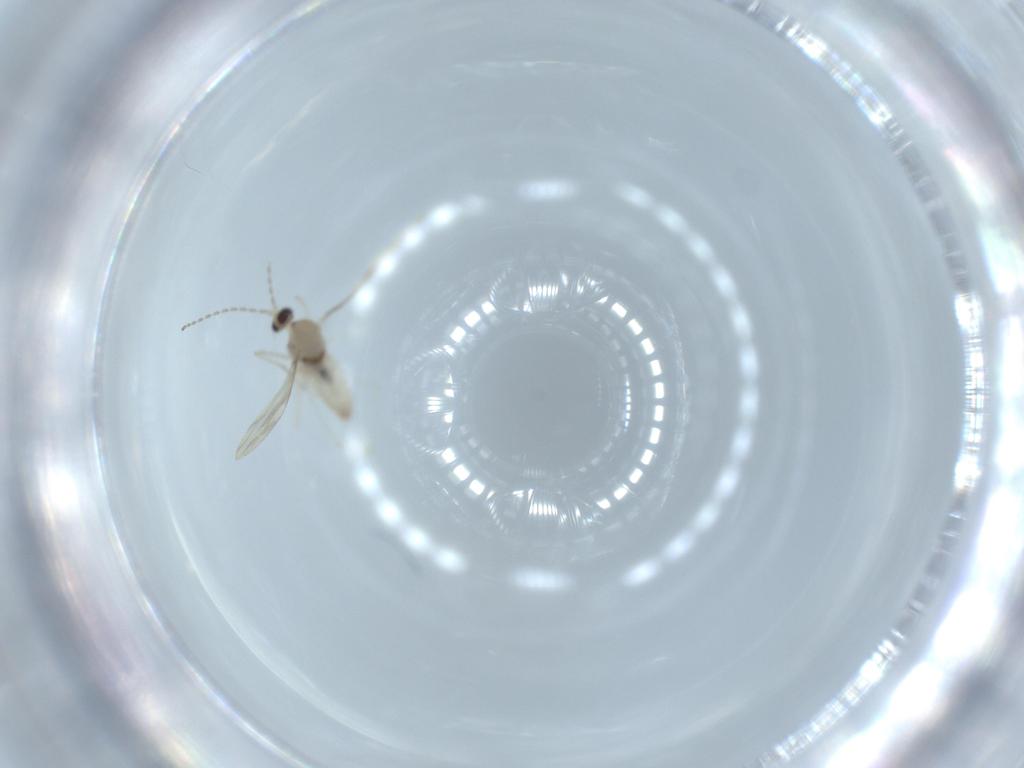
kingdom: Animalia
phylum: Arthropoda
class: Insecta
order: Diptera
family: Cecidomyiidae
